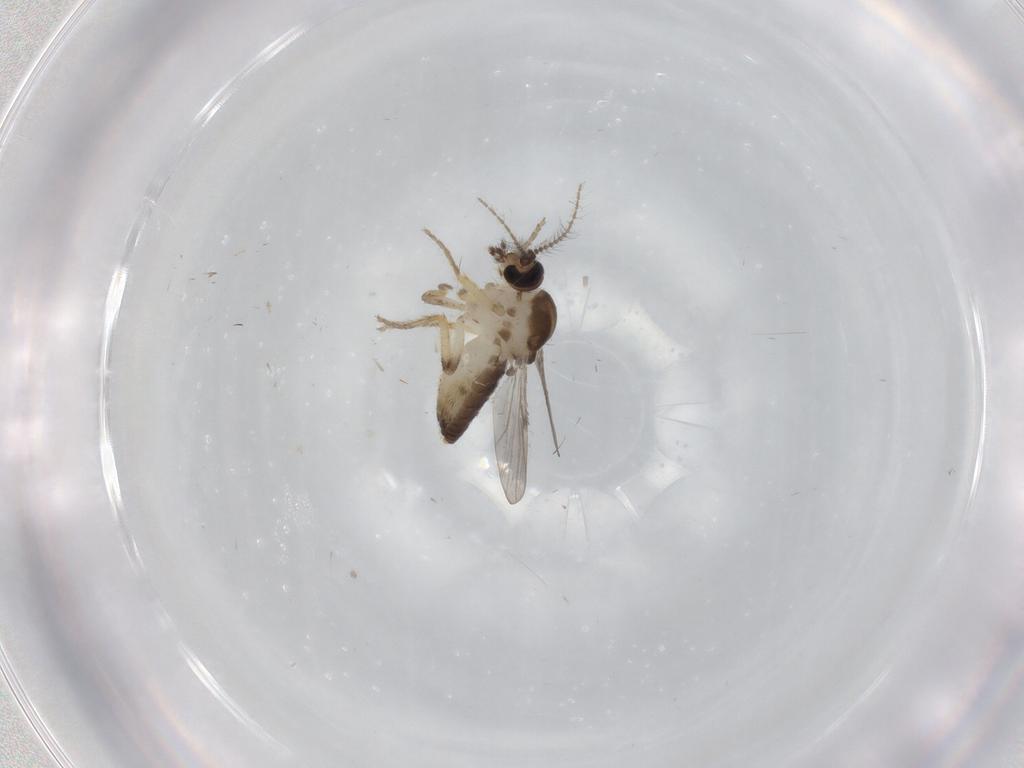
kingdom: Animalia
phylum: Arthropoda
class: Insecta
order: Diptera
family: Ceratopogonidae
